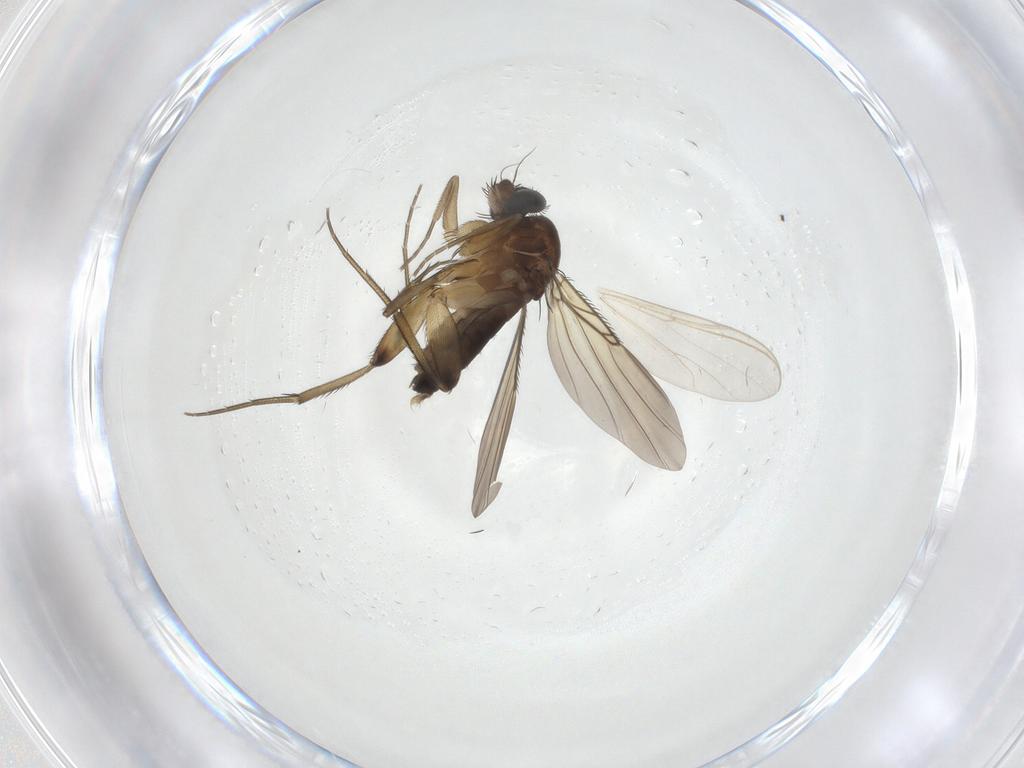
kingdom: Animalia
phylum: Arthropoda
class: Insecta
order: Diptera
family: Phoridae
